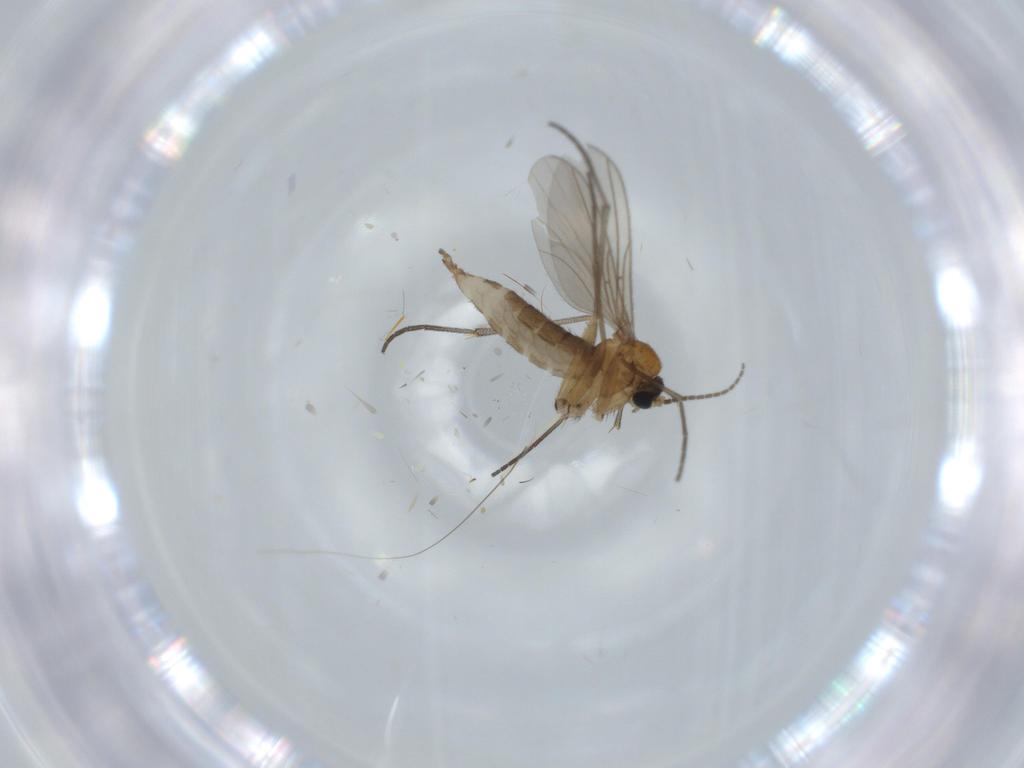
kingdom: Animalia
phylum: Arthropoda
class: Insecta
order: Diptera
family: Sciaridae
